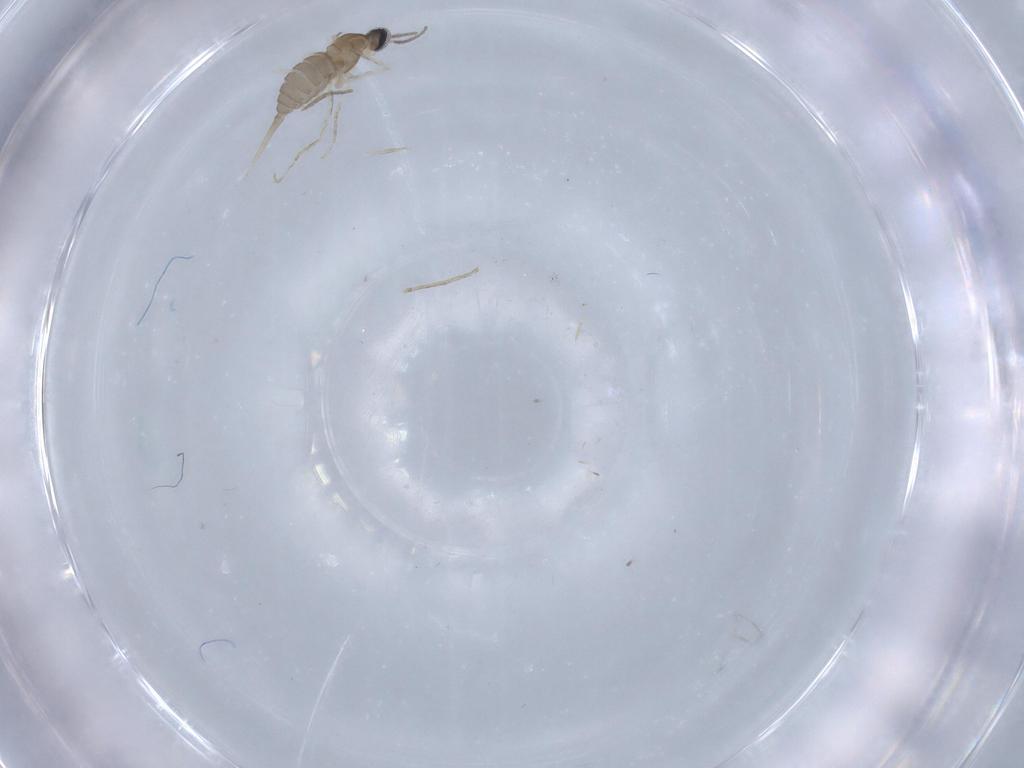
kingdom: Animalia
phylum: Arthropoda
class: Insecta
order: Diptera
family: Cecidomyiidae
